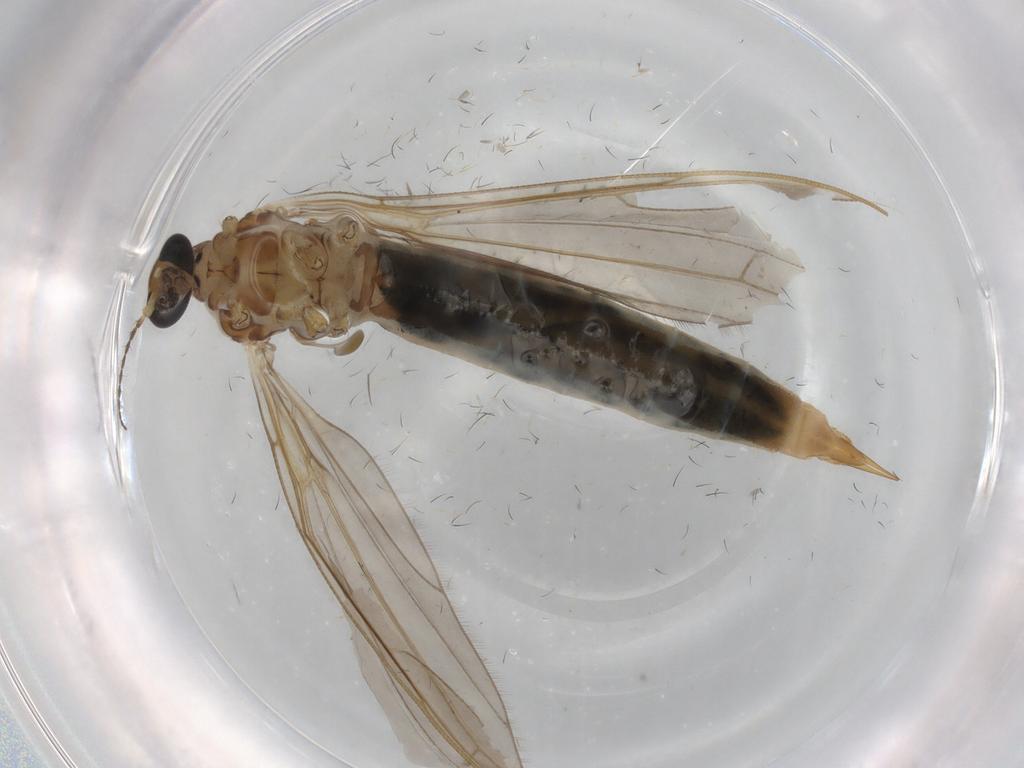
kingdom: Animalia
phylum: Arthropoda
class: Insecta
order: Diptera
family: Limoniidae
